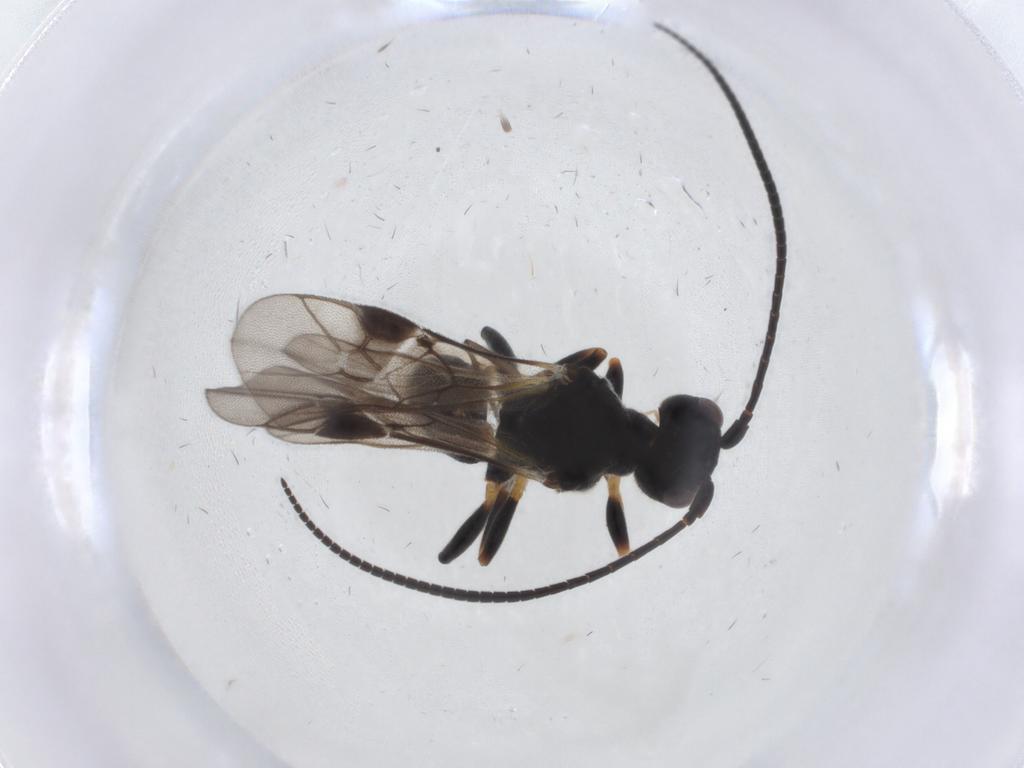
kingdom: Animalia
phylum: Arthropoda
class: Insecta
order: Hymenoptera
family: Braconidae
